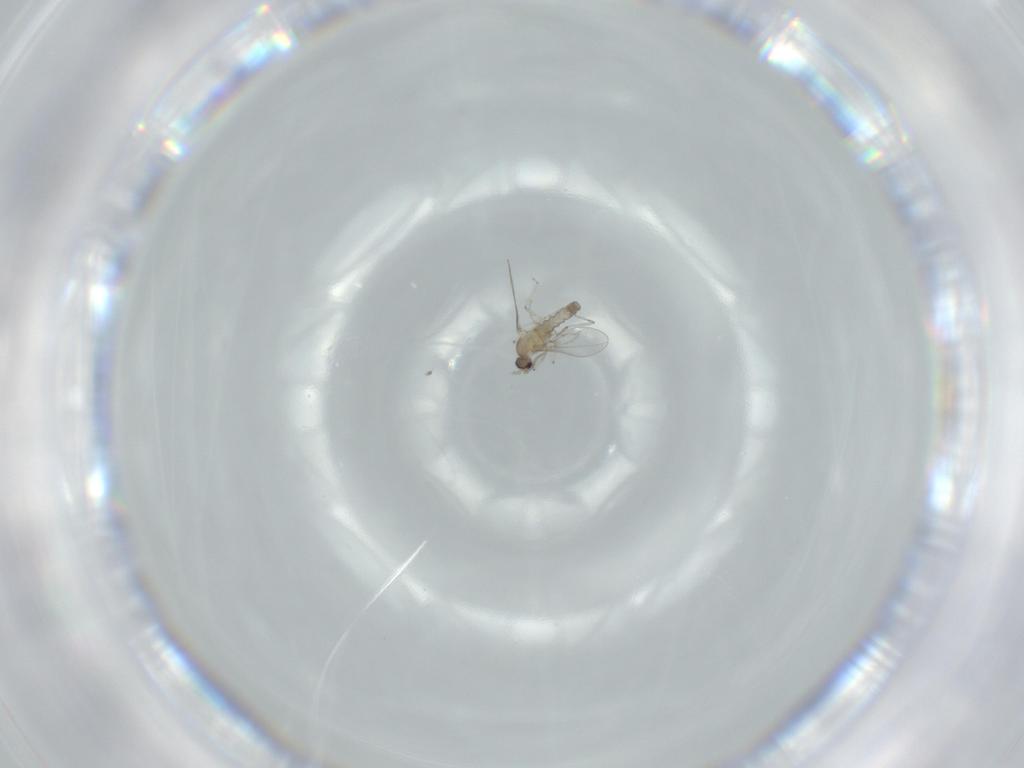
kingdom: Animalia
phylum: Arthropoda
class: Insecta
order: Diptera
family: Cecidomyiidae
